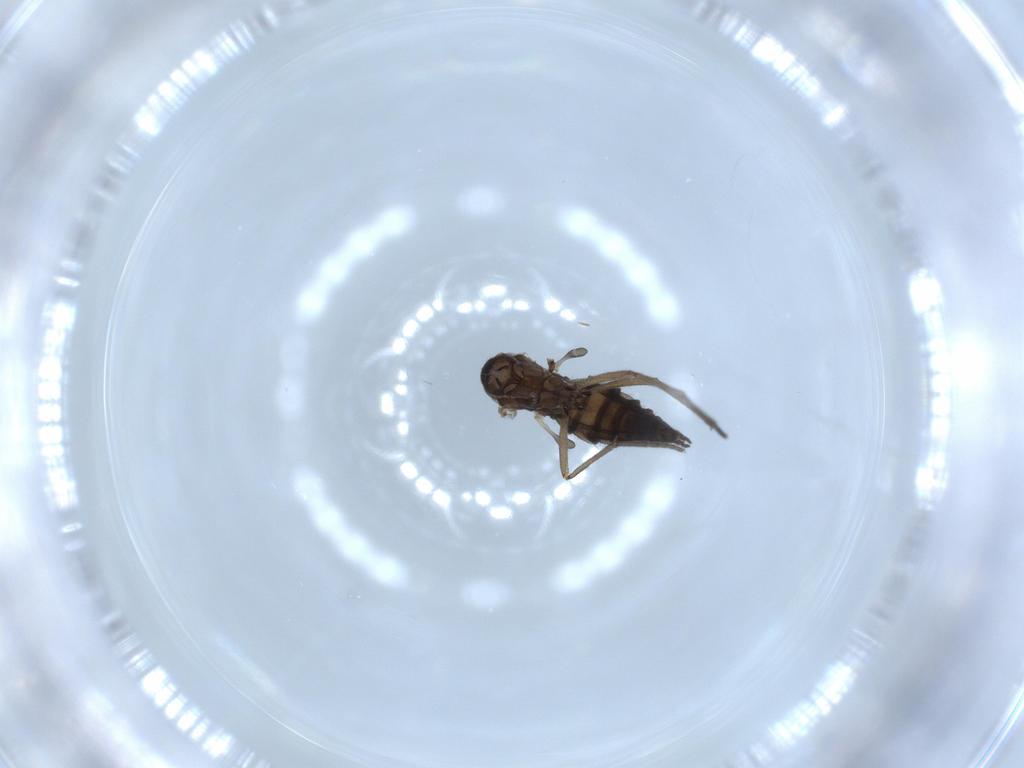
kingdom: Animalia
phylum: Arthropoda
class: Insecta
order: Diptera
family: Sciaridae
